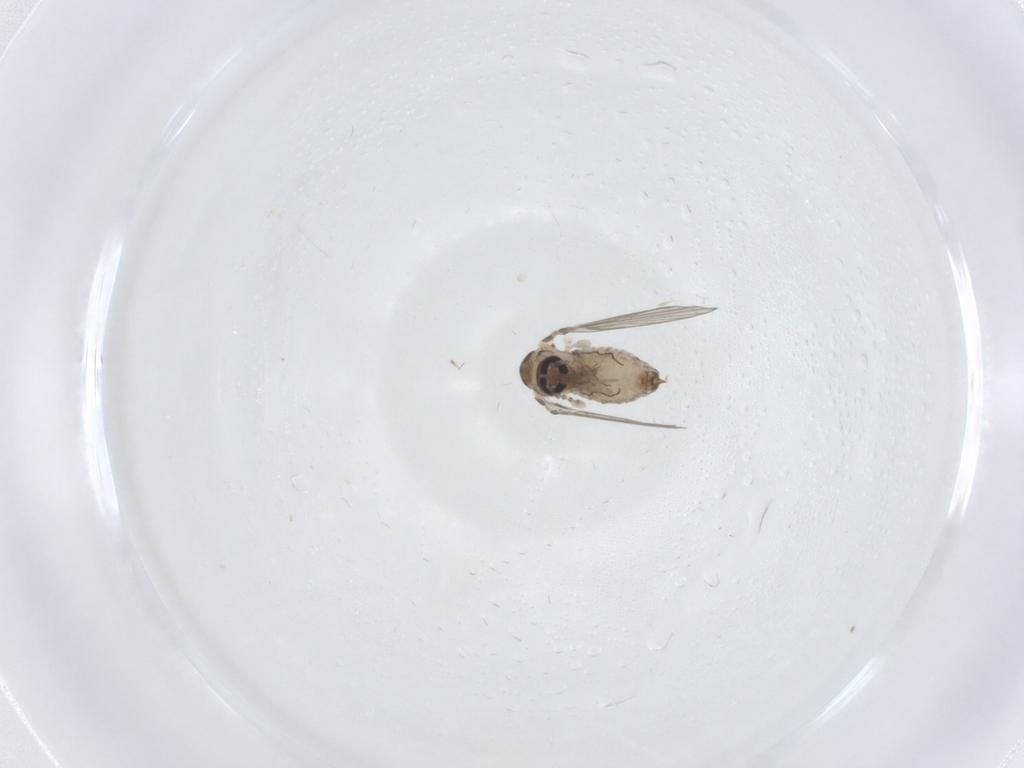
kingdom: Animalia
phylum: Arthropoda
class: Insecta
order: Diptera
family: Psychodidae
